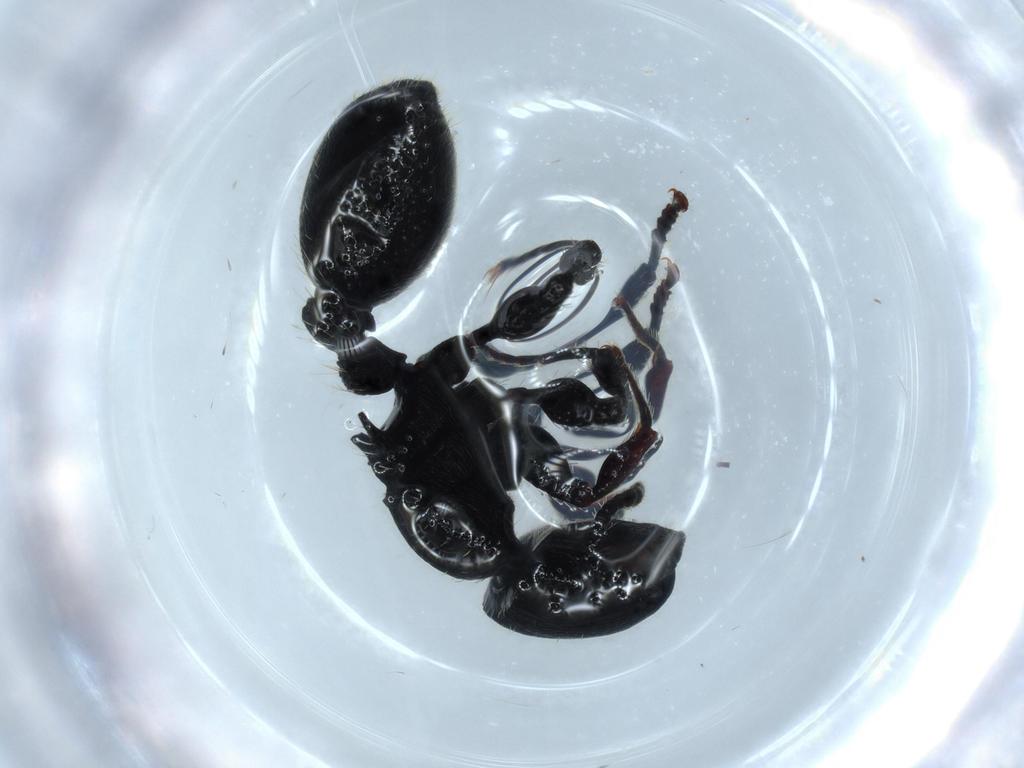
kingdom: Animalia
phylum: Arthropoda
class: Insecta
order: Hymenoptera
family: Formicidae
